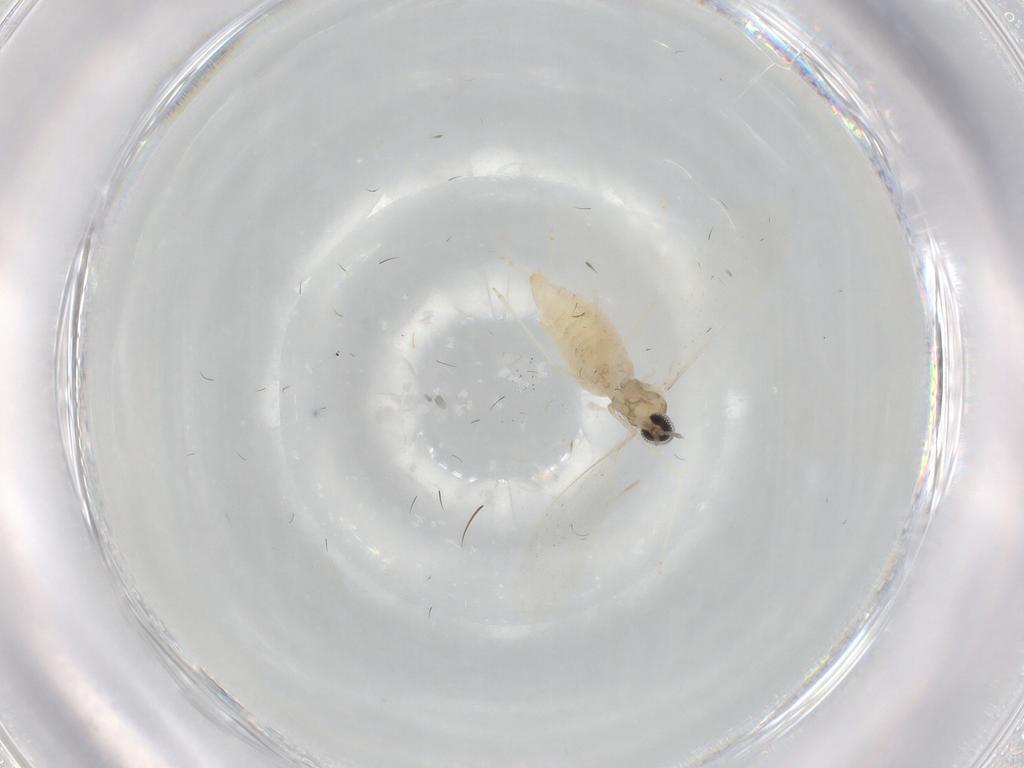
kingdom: Animalia
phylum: Arthropoda
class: Insecta
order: Diptera
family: Cecidomyiidae
